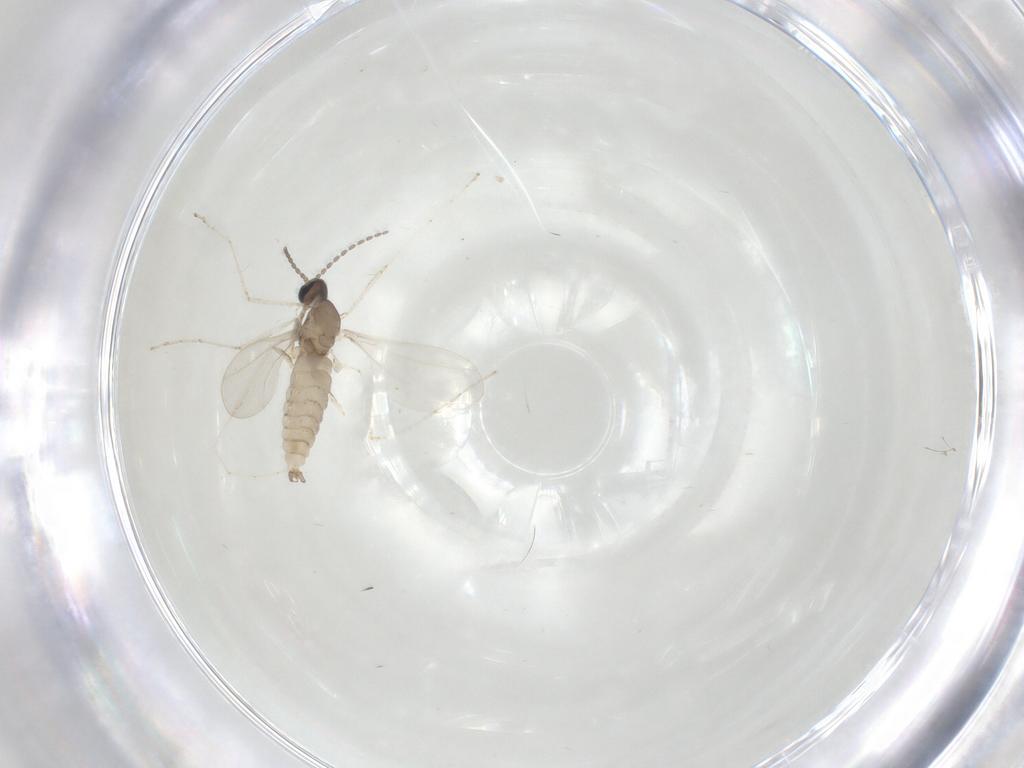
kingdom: Animalia
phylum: Arthropoda
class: Insecta
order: Diptera
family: Cecidomyiidae
